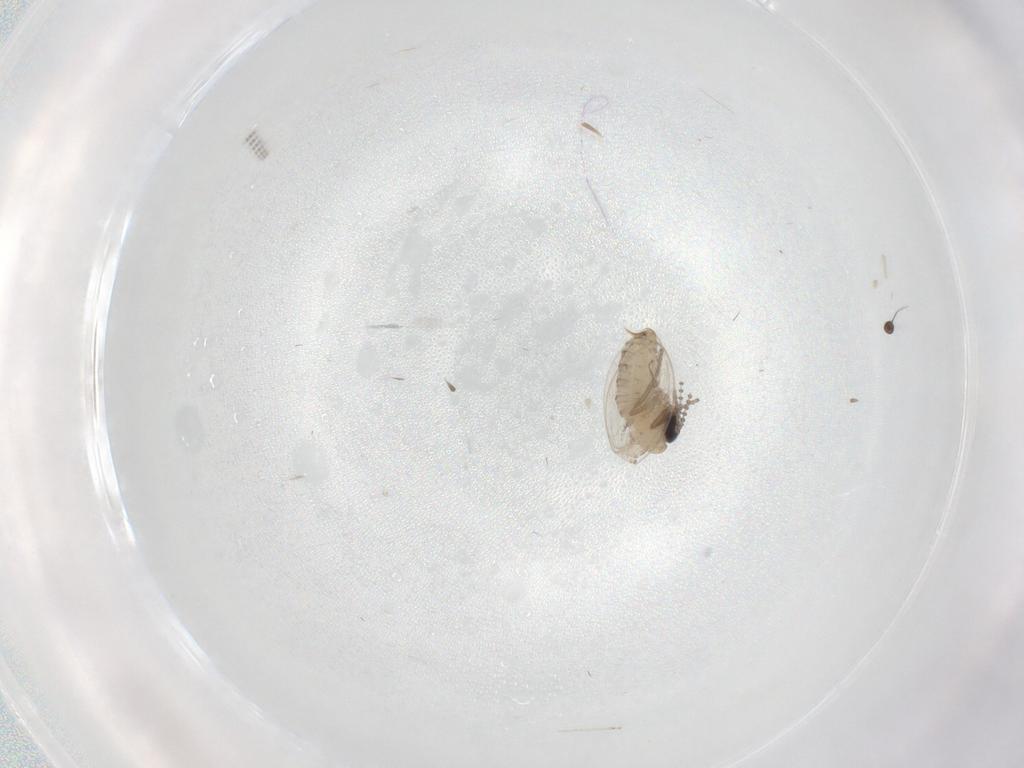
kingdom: Animalia
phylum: Arthropoda
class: Insecta
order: Diptera
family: Psychodidae
